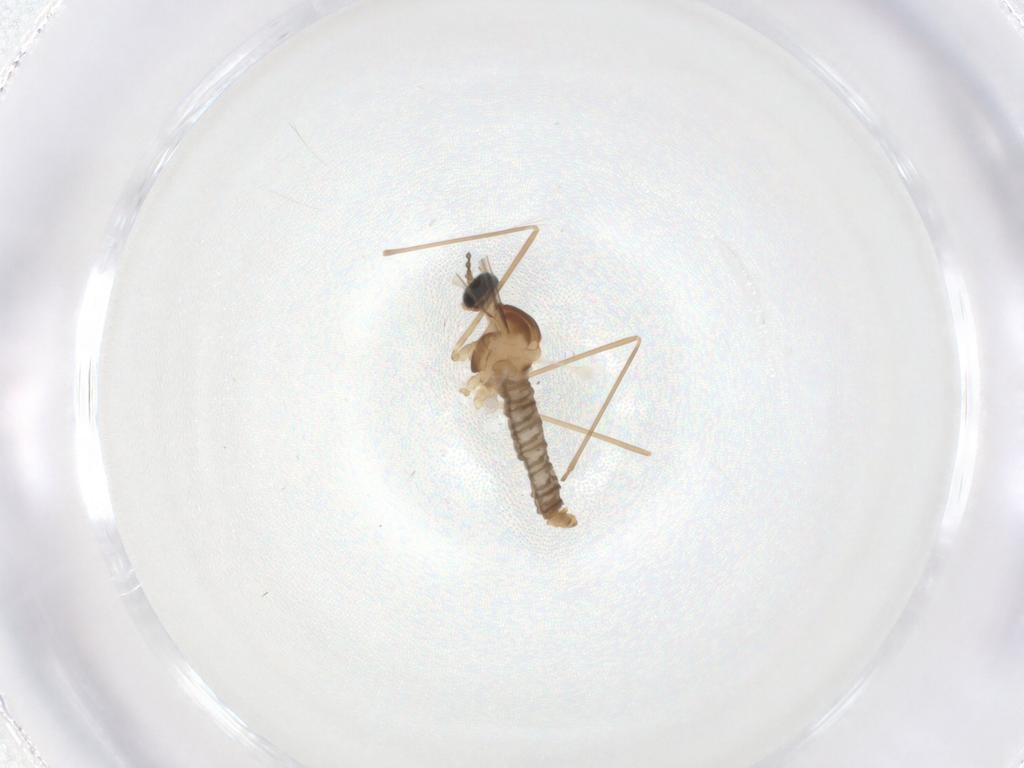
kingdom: Animalia
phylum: Arthropoda
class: Insecta
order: Diptera
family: Cecidomyiidae
